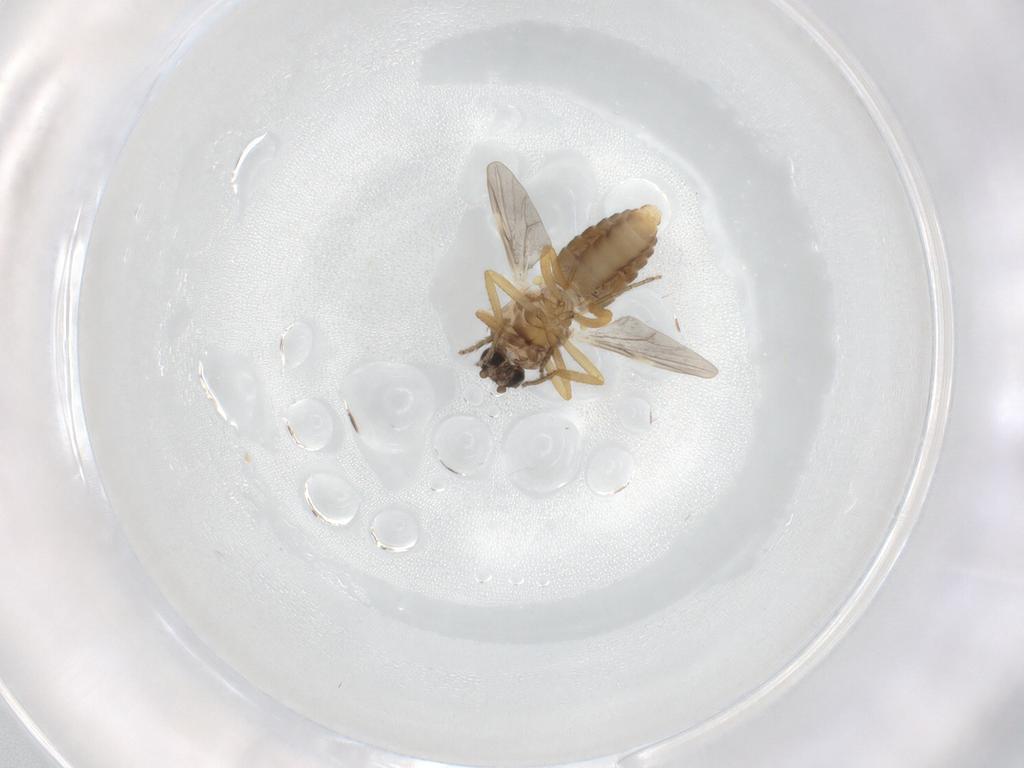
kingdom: Animalia
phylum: Arthropoda
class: Insecta
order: Diptera
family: Ceratopogonidae
